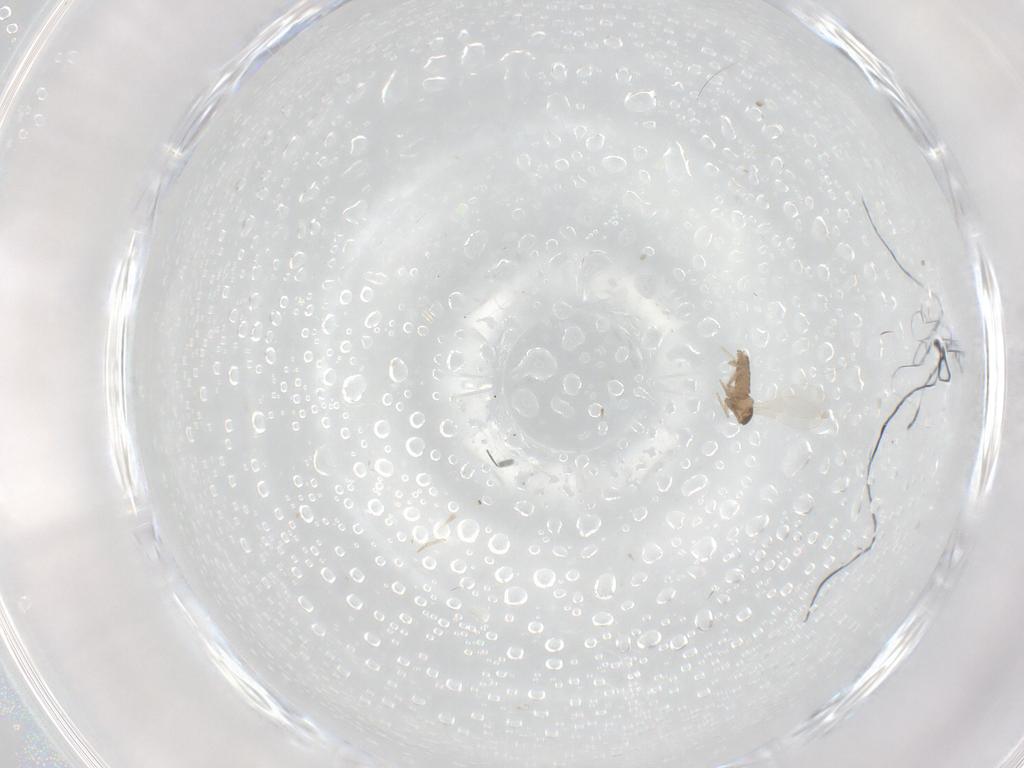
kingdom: Animalia
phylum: Arthropoda
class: Insecta
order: Diptera
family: Cecidomyiidae
